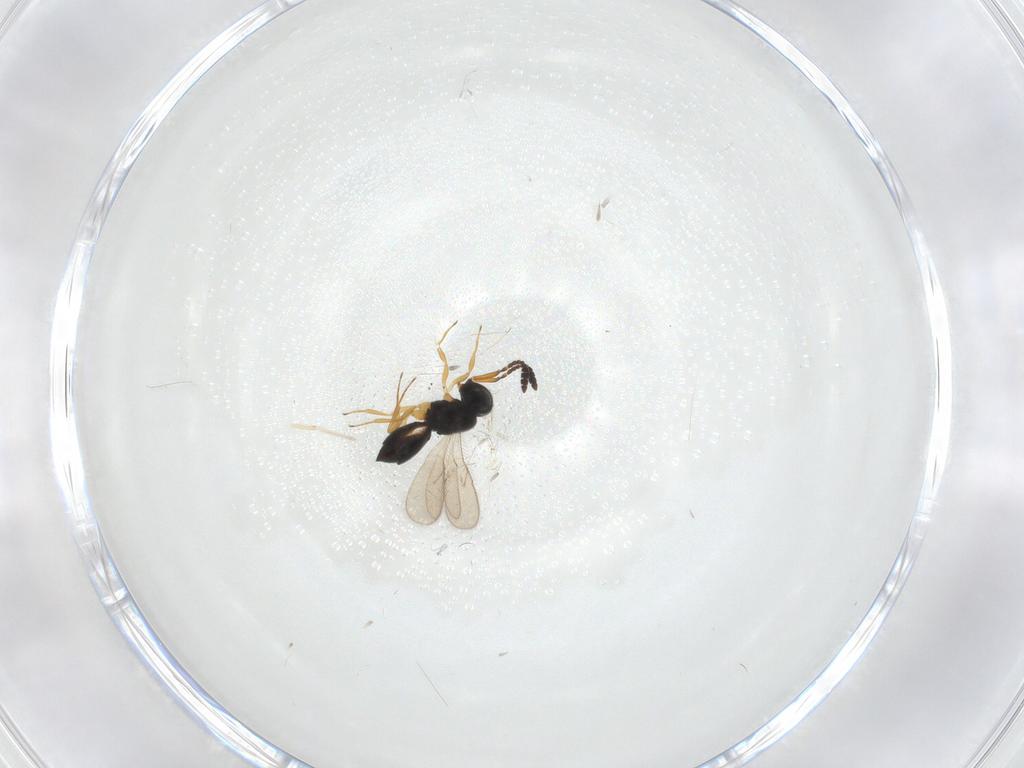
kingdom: Animalia
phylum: Arthropoda
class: Insecta
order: Hymenoptera
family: Scelionidae
